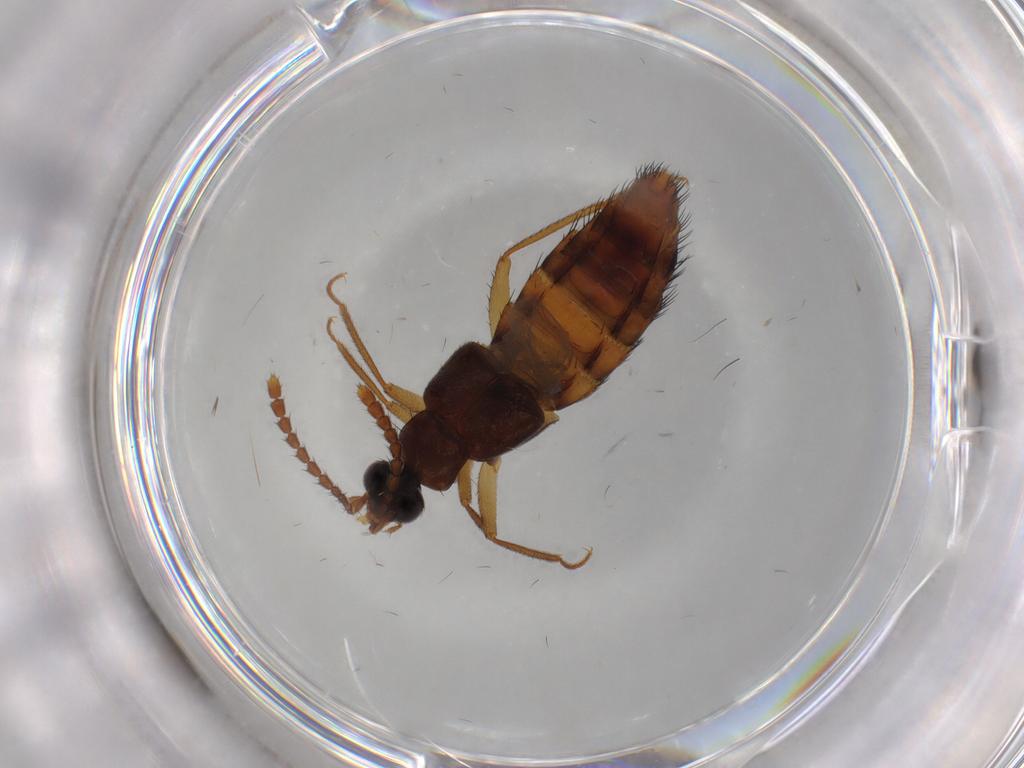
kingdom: Animalia
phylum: Arthropoda
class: Insecta
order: Coleoptera
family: Staphylinidae
